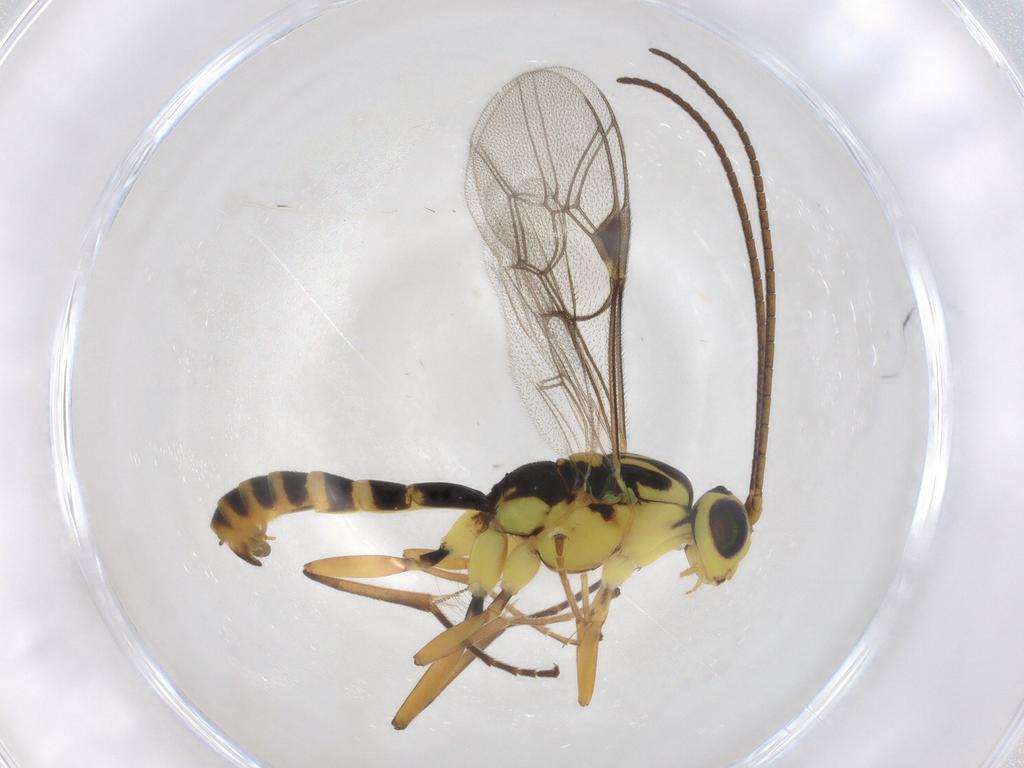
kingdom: Animalia
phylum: Arthropoda
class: Insecta
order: Hymenoptera
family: Ichneumonidae
